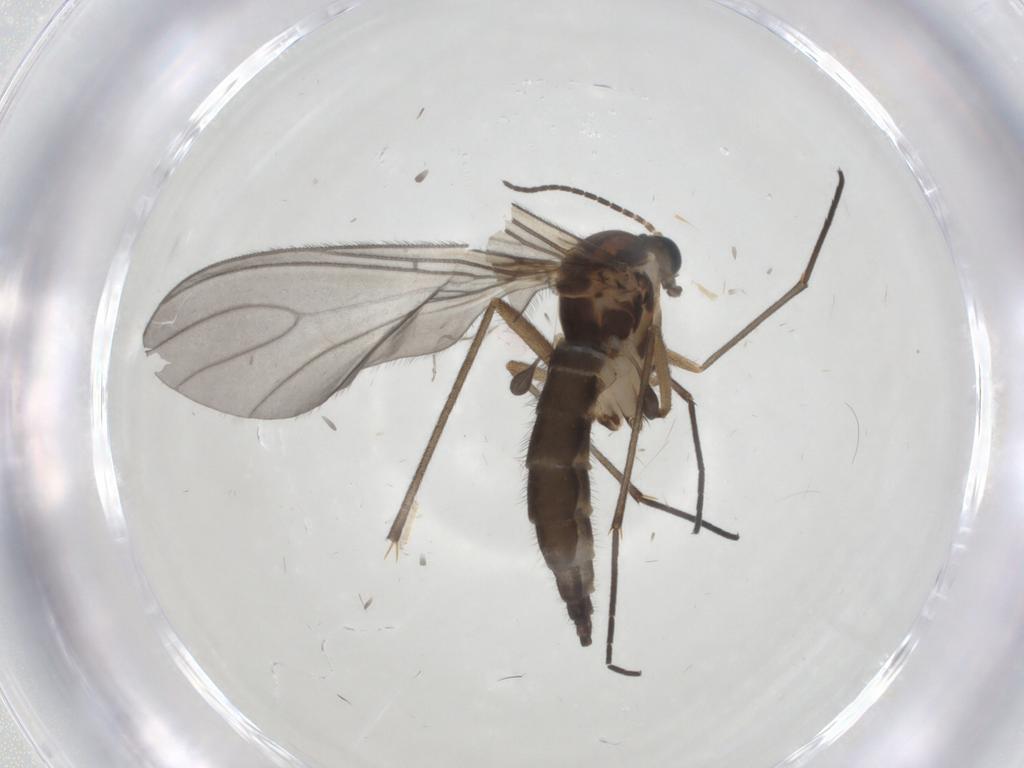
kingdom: Animalia
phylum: Arthropoda
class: Insecta
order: Diptera
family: Sciaridae
